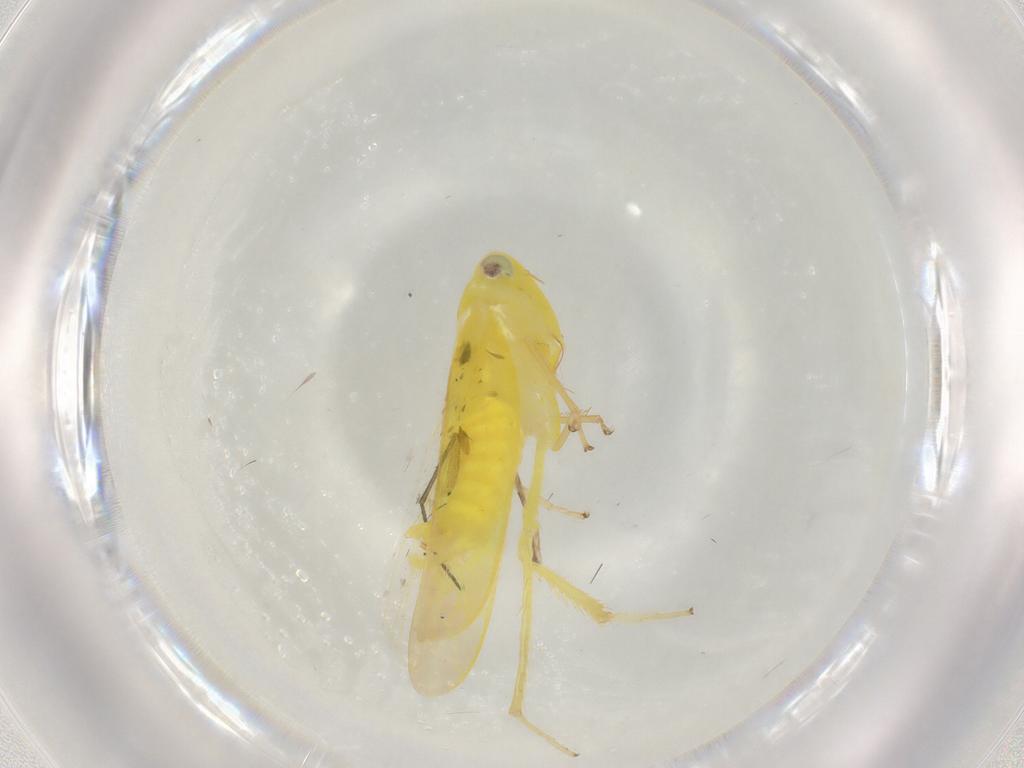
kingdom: Animalia
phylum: Arthropoda
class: Insecta
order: Hemiptera
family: Cicadellidae
